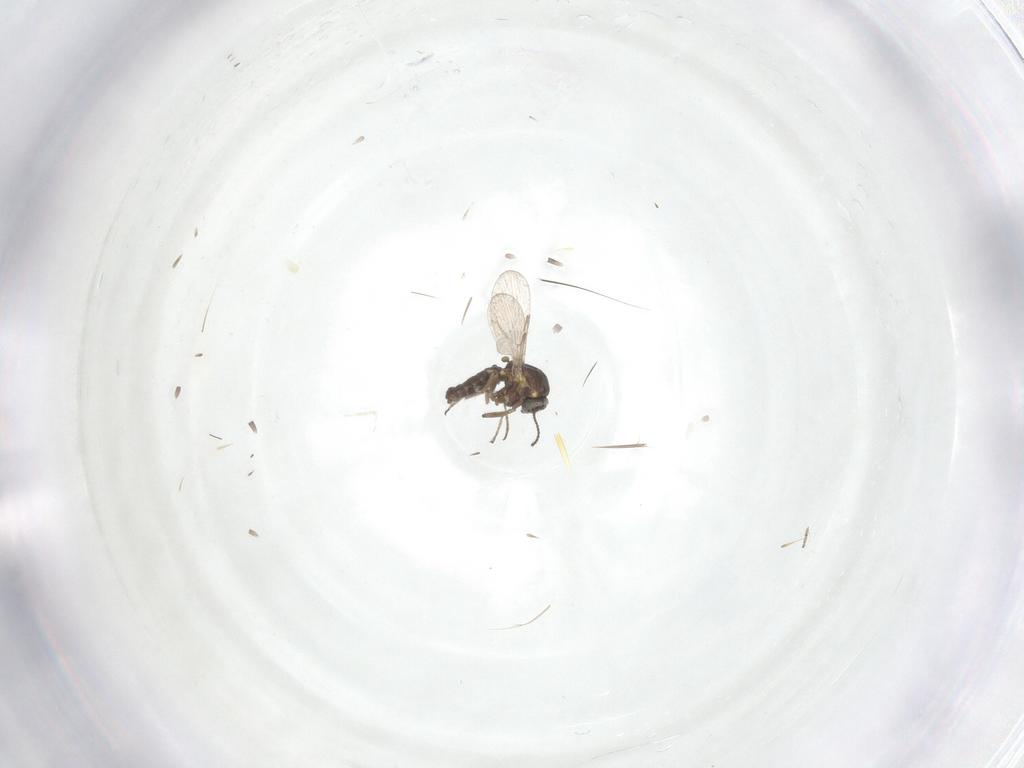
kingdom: Animalia
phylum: Arthropoda
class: Insecta
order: Diptera
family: Ceratopogonidae
